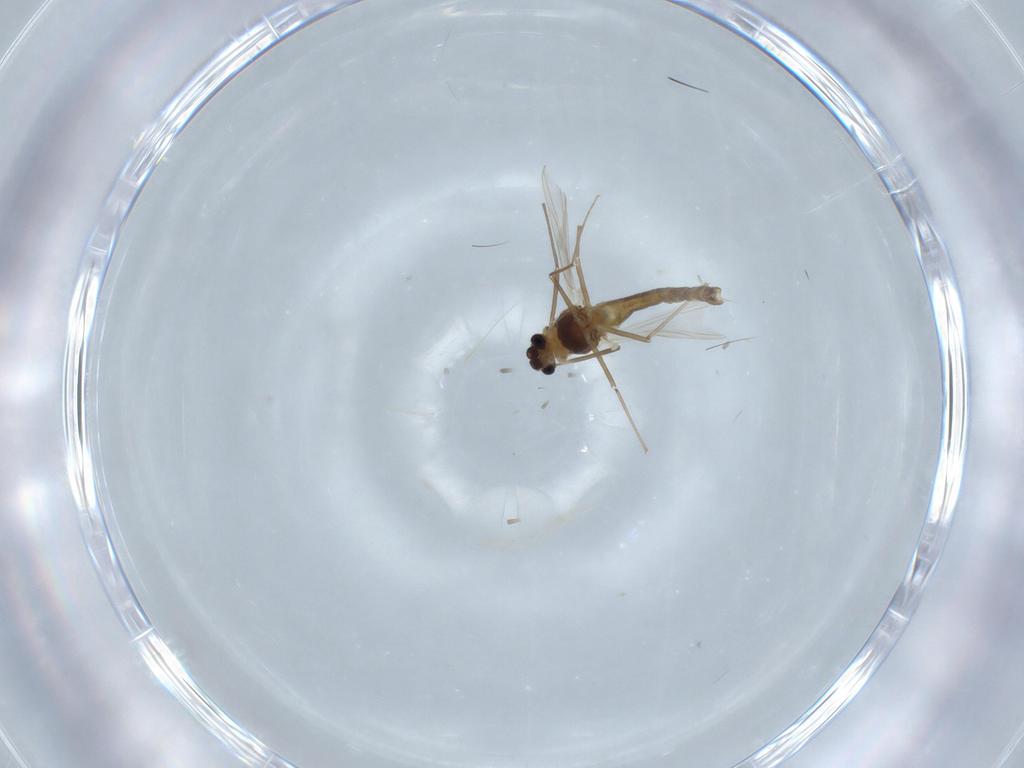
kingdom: Animalia
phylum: Arthropoda
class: Insecta
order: Diptera
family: Chironomidae
